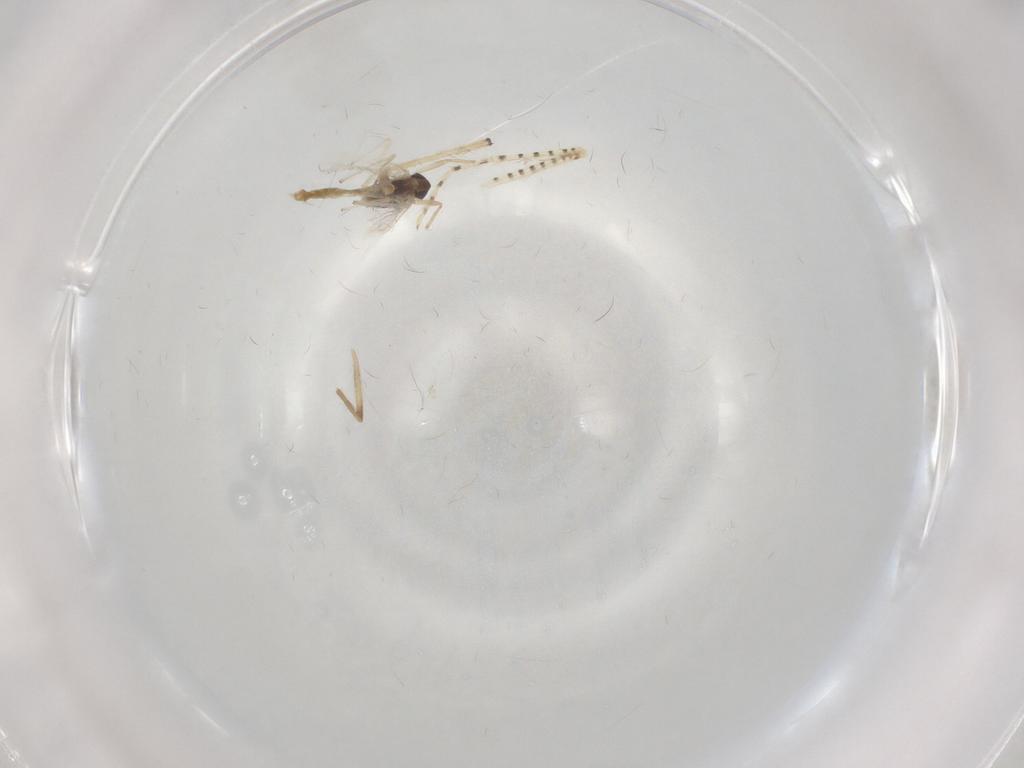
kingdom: Animalia
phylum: Arthropoda
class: Insecta
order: Diptera
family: Chironomidae
